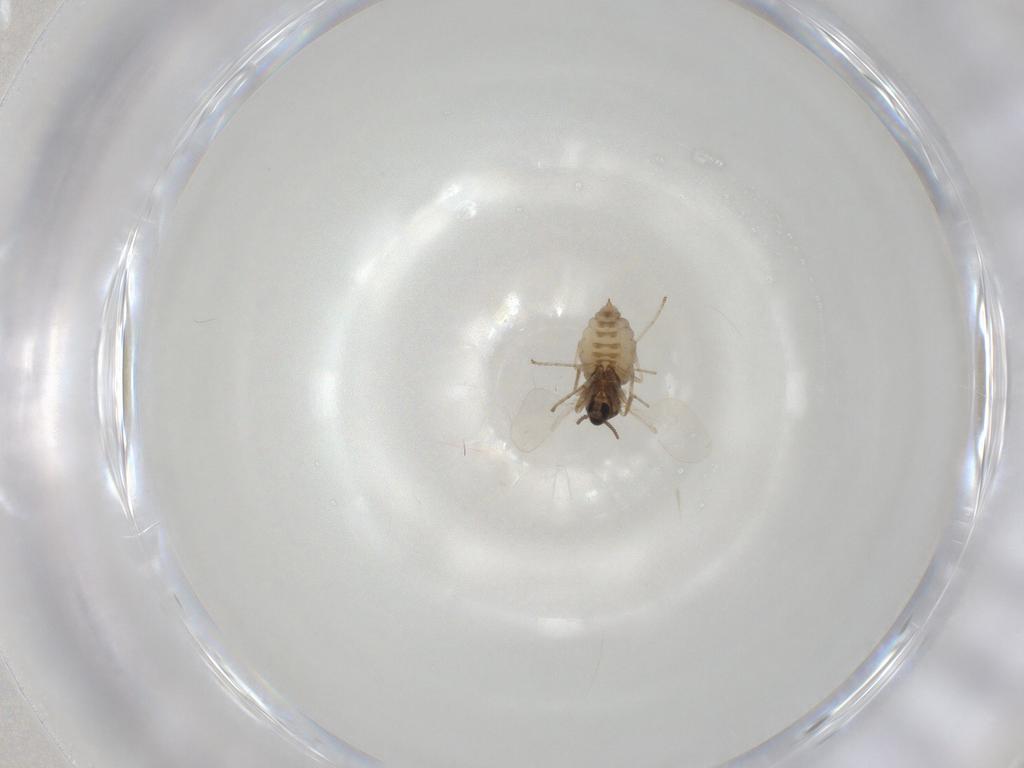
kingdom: Animalia
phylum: Arthropoda
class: Insecta
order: Diptera
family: Cecidomyiidae
